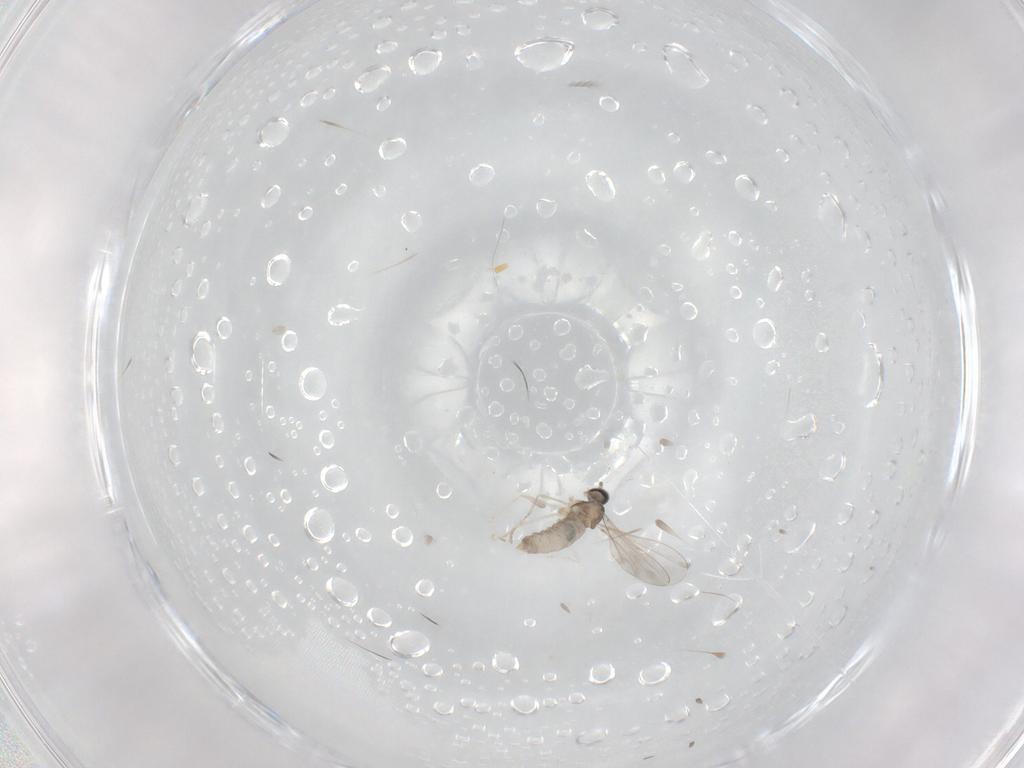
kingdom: Animalia
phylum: Arthropoda
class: Insecta
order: Diptera
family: Cecidomyiidae
